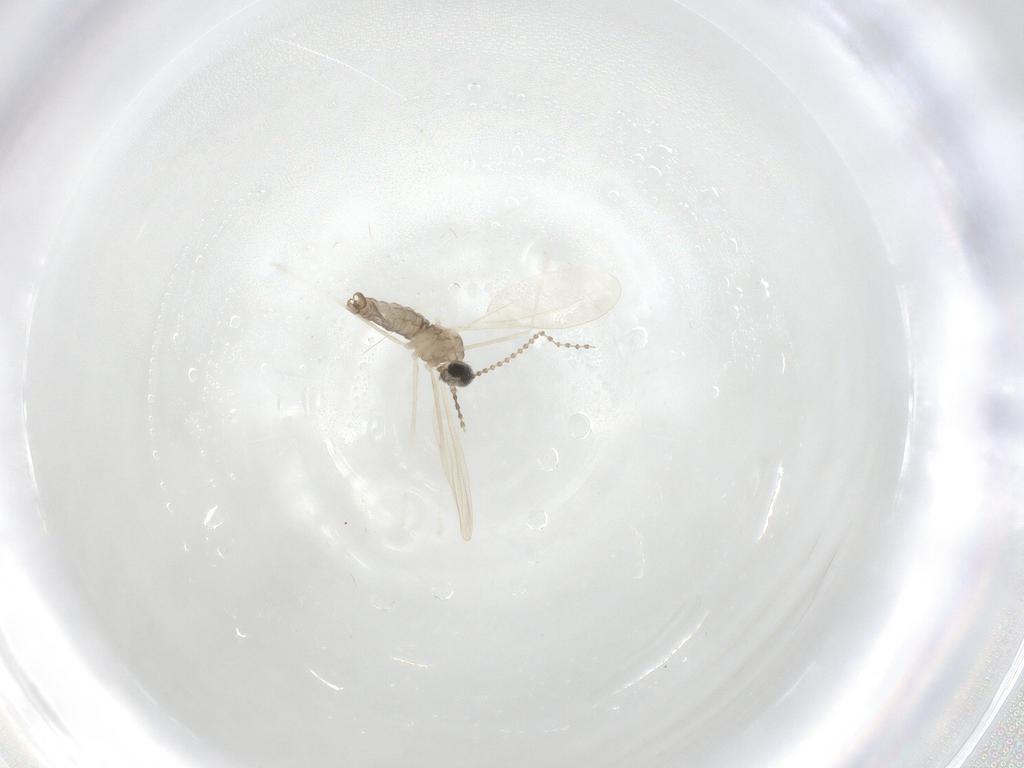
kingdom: Animalia
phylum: Arthropoda
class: Insecta
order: Diptera
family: Cecidomyiidae
